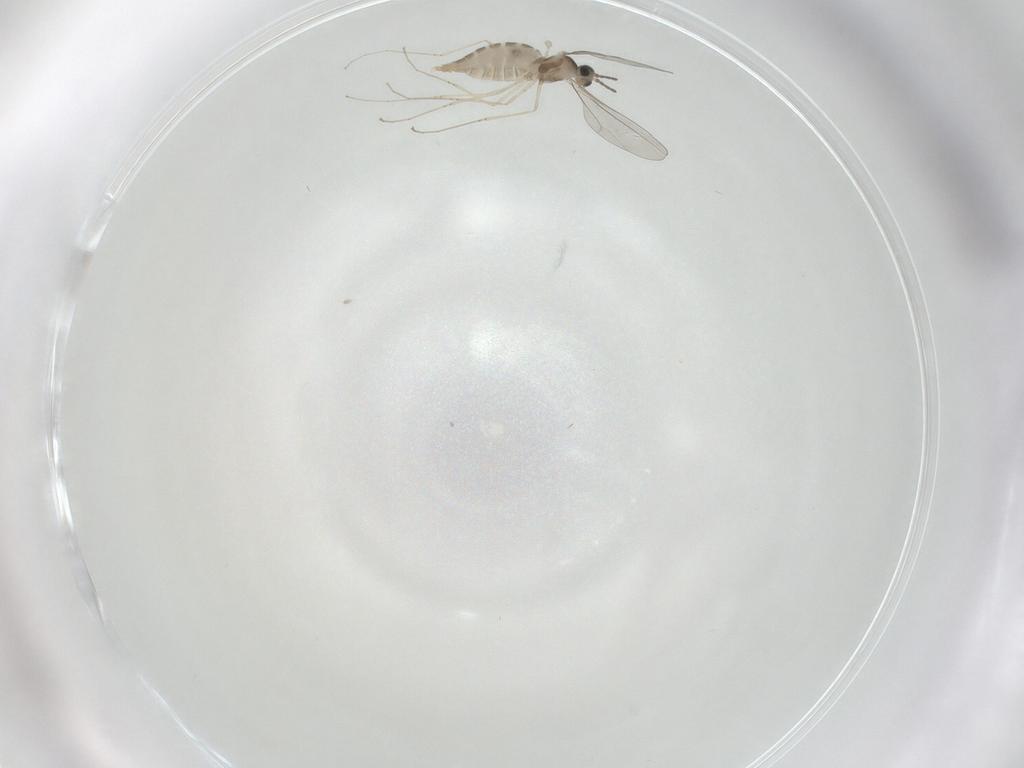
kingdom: Animalia
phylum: Arthropoda
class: Insecta
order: Diptera
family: Cecidomyiidae
